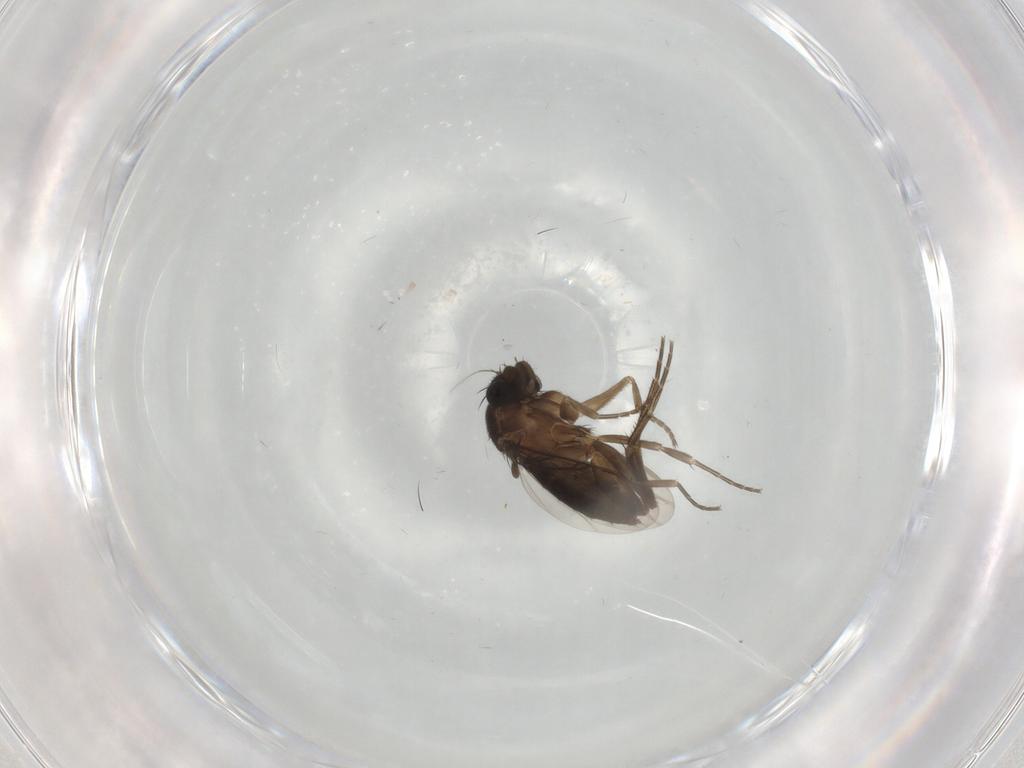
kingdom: Animalia
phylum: Arthropoda
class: Insecta
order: Diptera
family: Phoridae
